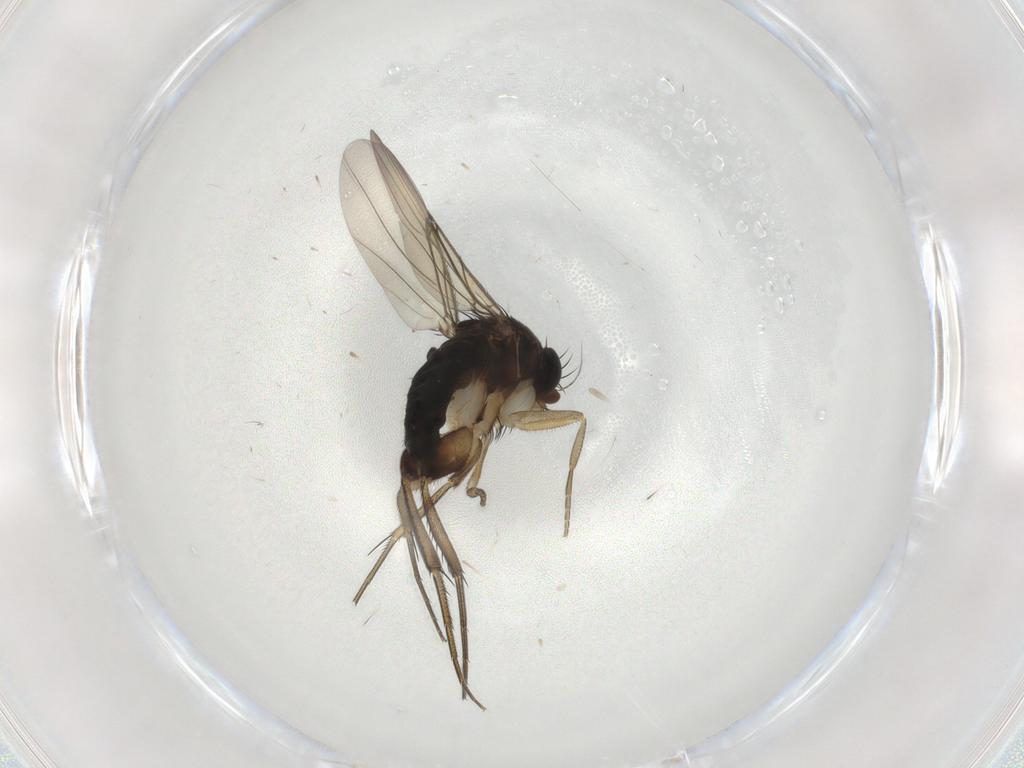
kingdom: Animalia
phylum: Arthropoda
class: Insecta
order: Diptera
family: Phoridae
